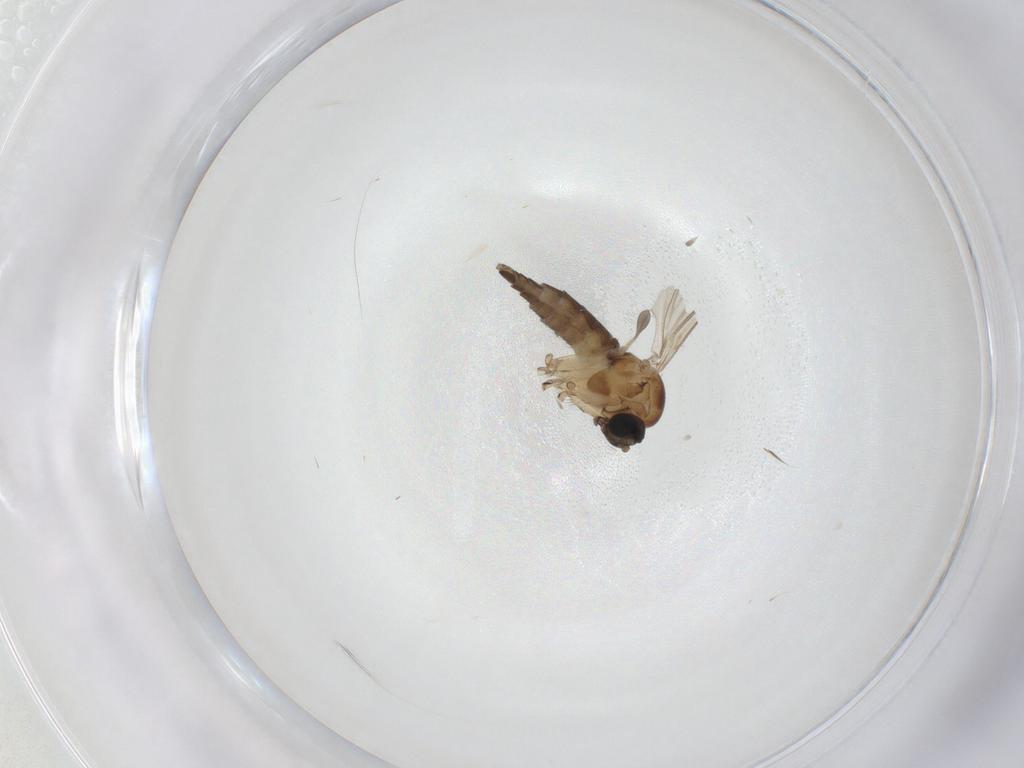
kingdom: Animalia
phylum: Arthropoda
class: Insecta
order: Diptera
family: Sciaridae
